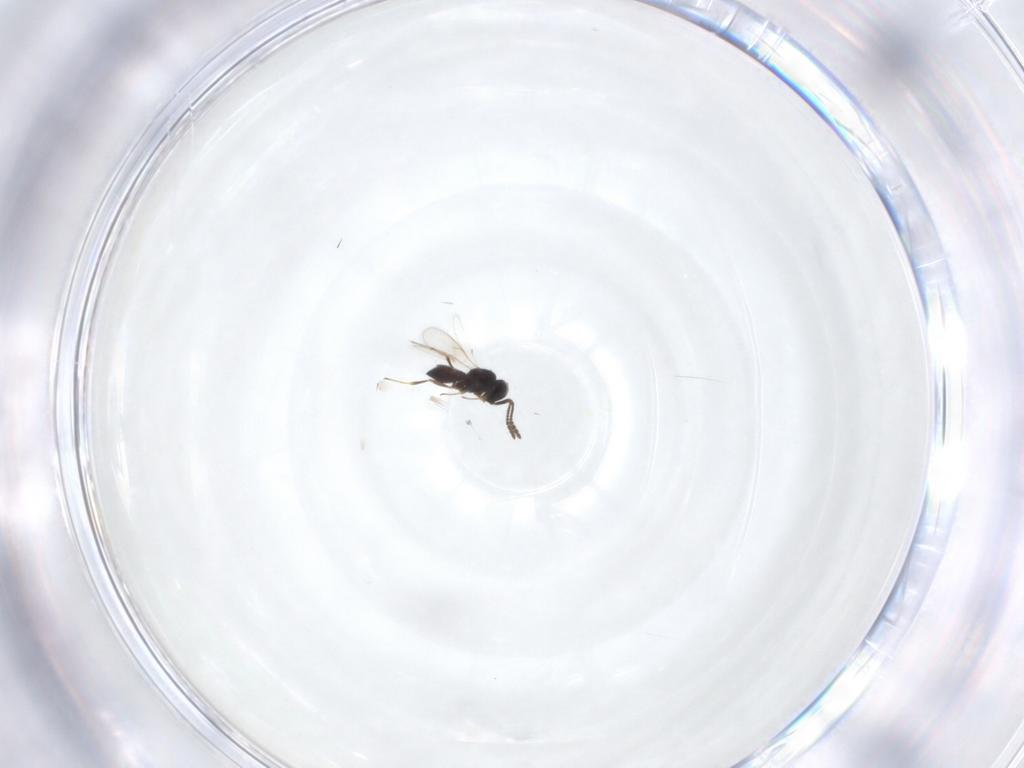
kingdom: Animalia
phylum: Arthropoda
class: Insecta
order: Hymenoptera
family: Scelionidae
